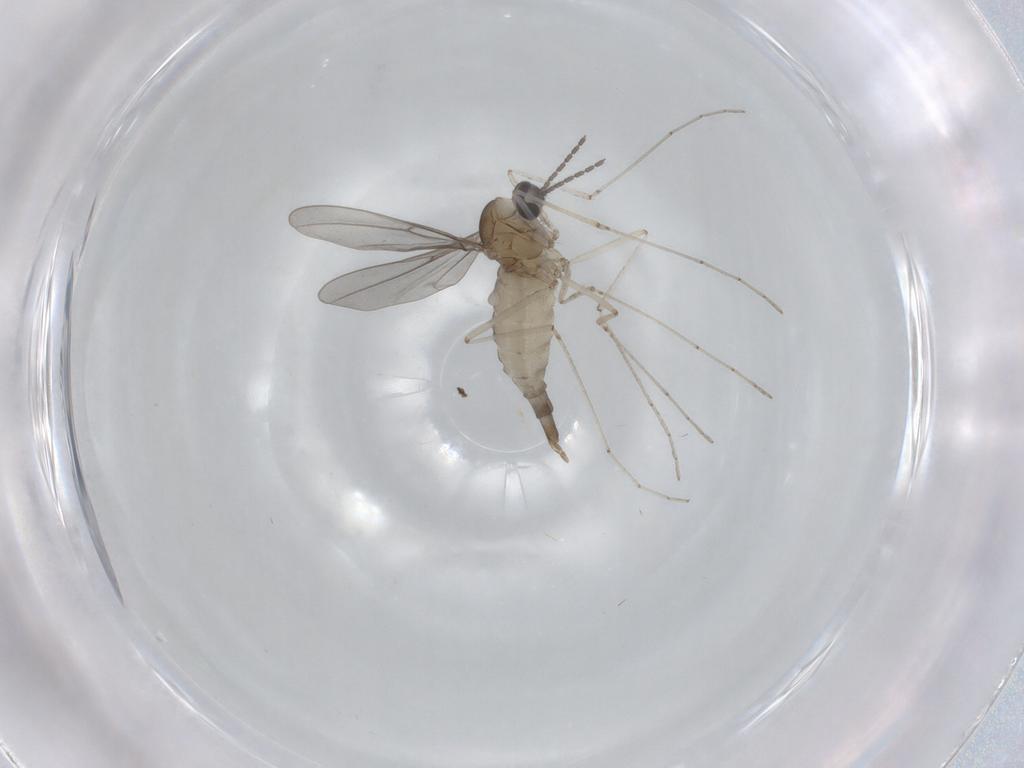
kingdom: Animalia
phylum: Arthropoda
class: Insecta
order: Diptera
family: Cecidomyiidae
